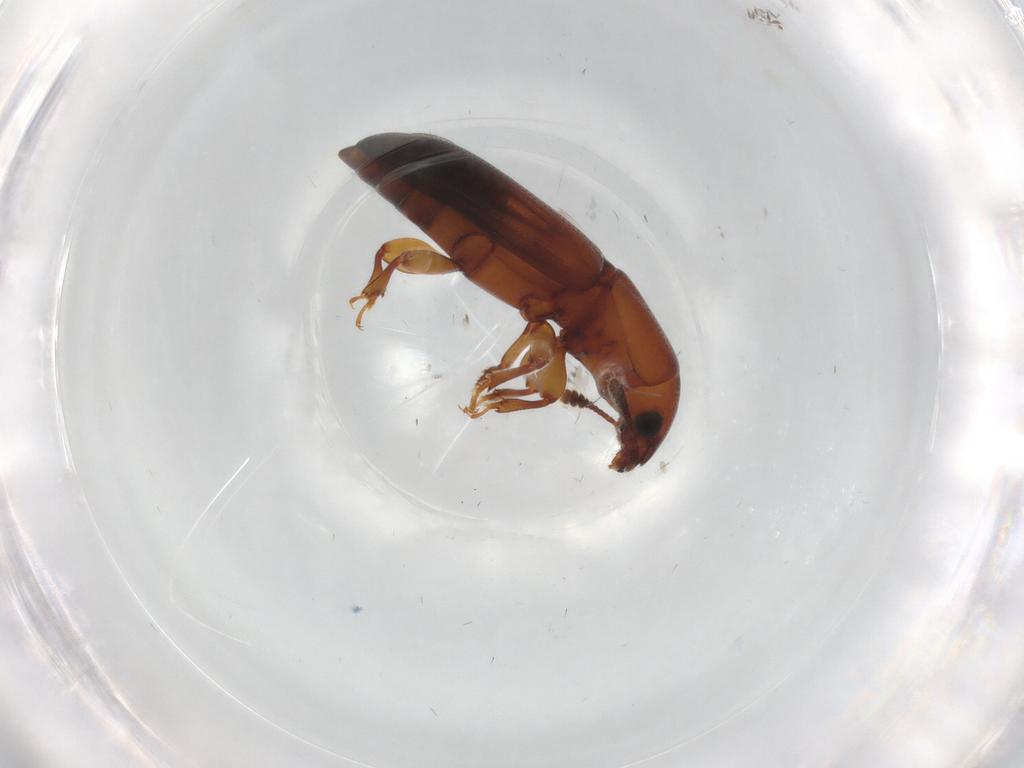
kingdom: Animalia
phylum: Arthropoda
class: Insecta
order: Coleoptera
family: Salpingidae
